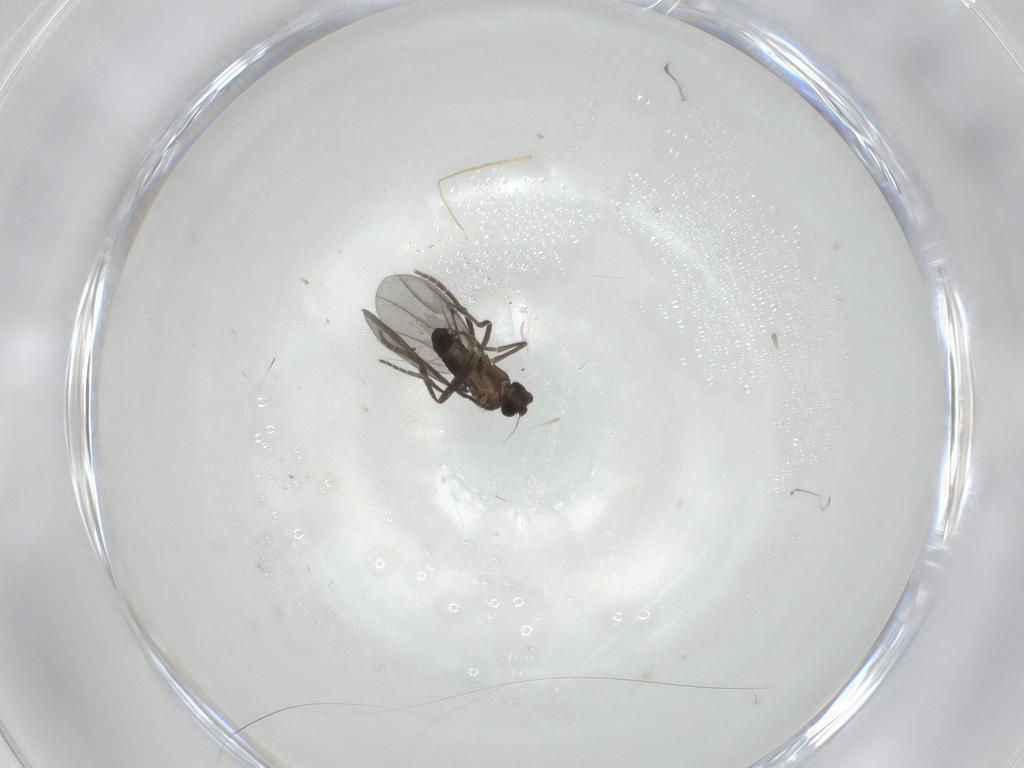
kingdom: Animalia
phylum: Arthropoda
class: Insecta
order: Diptera
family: Phoridae
